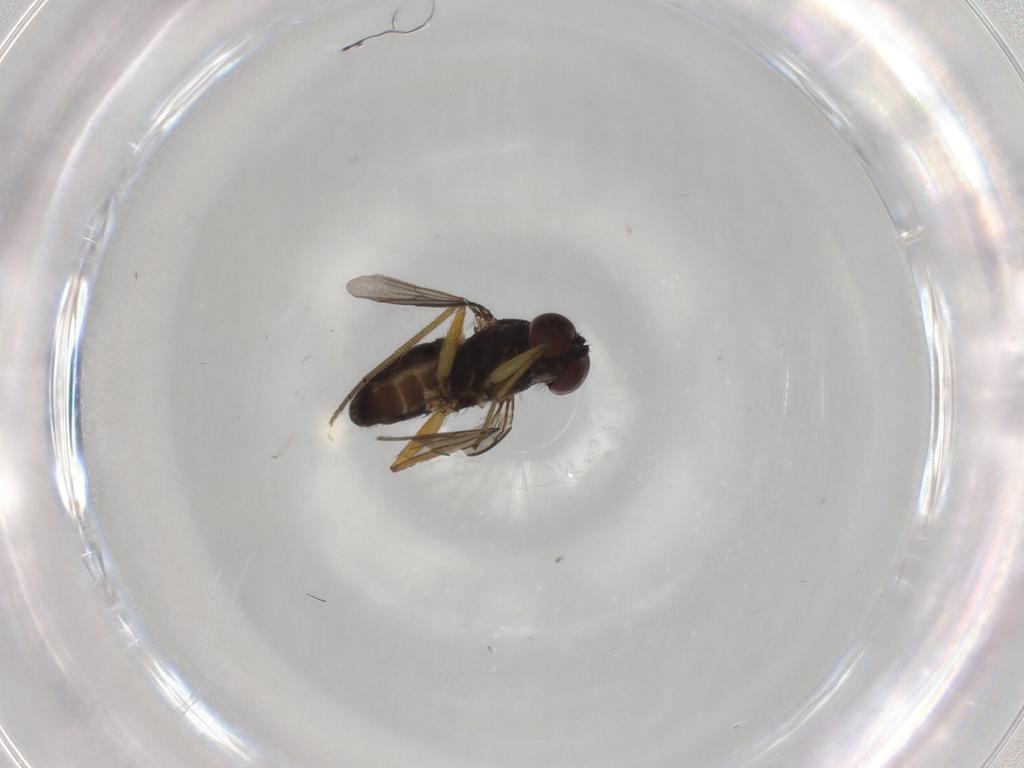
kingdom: Animalia
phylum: Arthropoda
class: Insecta
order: Diptera
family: Dolichopodidae
